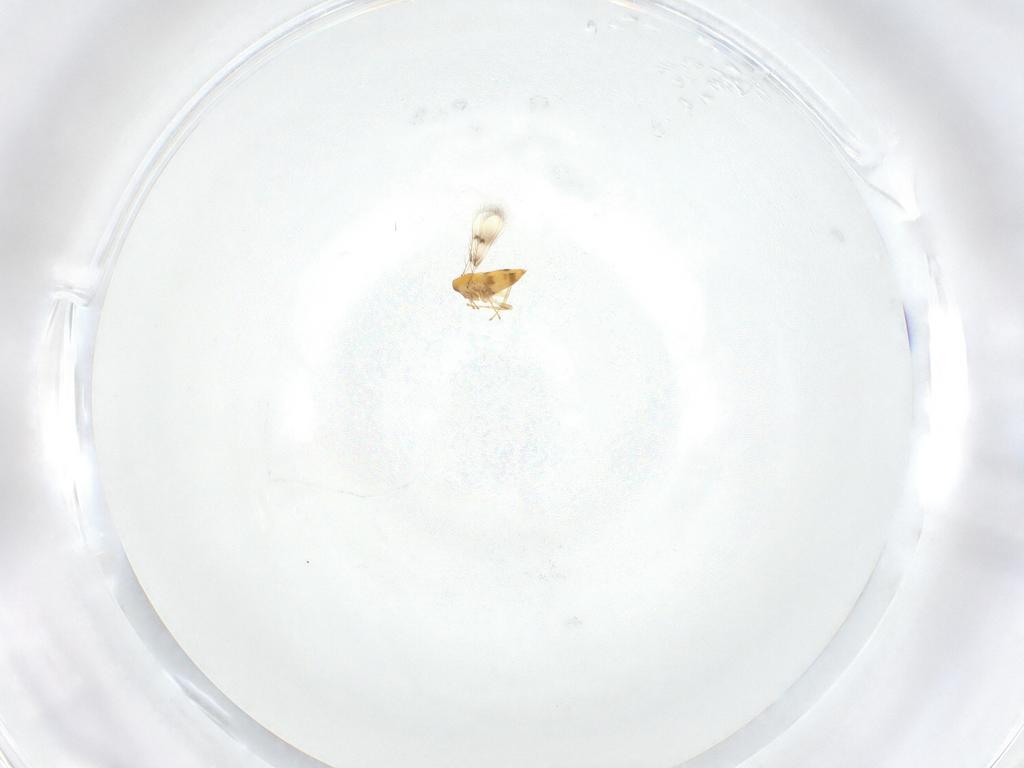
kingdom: Animalia
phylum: Arthropoda
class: Insecta
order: Hymenoptera
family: Trichogrammatidae
